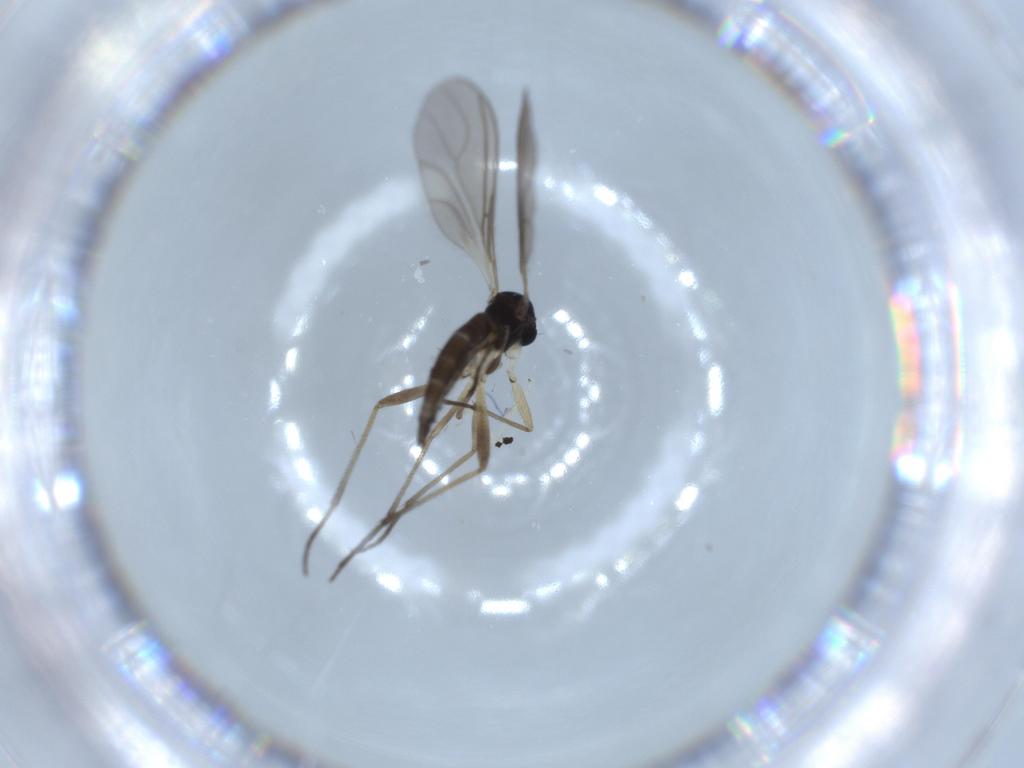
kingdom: Animalia
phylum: Arthropoda
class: Insecta
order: Diptera
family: Sciaridae
